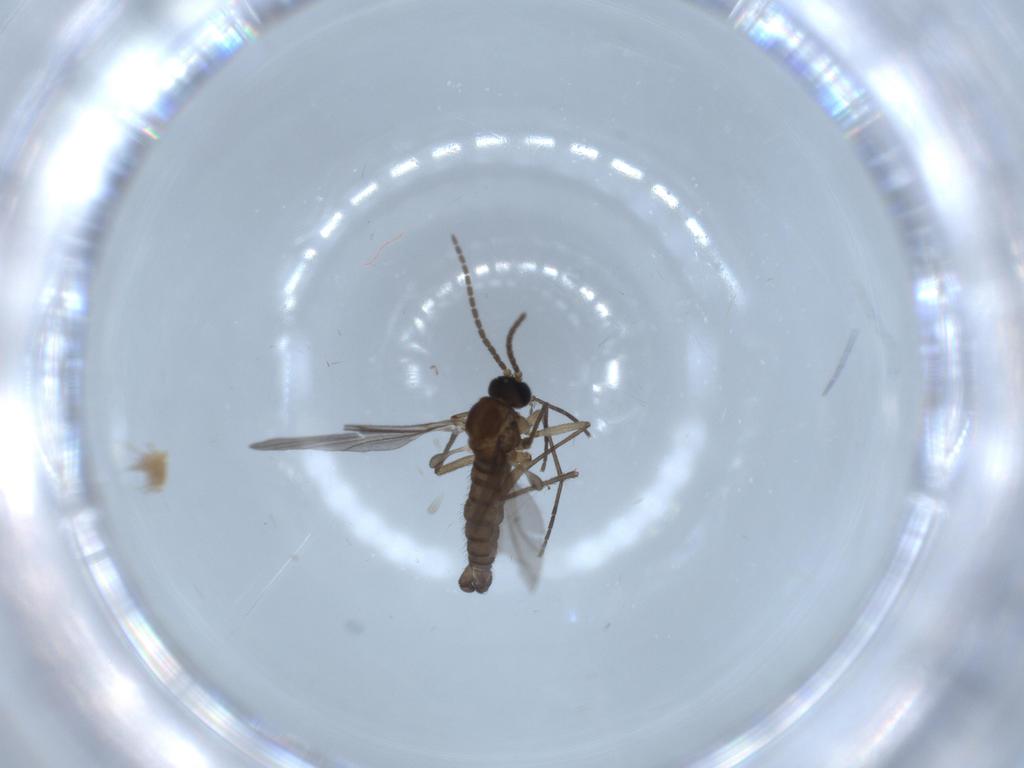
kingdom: Animalia
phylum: Arthropoda
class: Insecta
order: Diptera
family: Sciaridae
